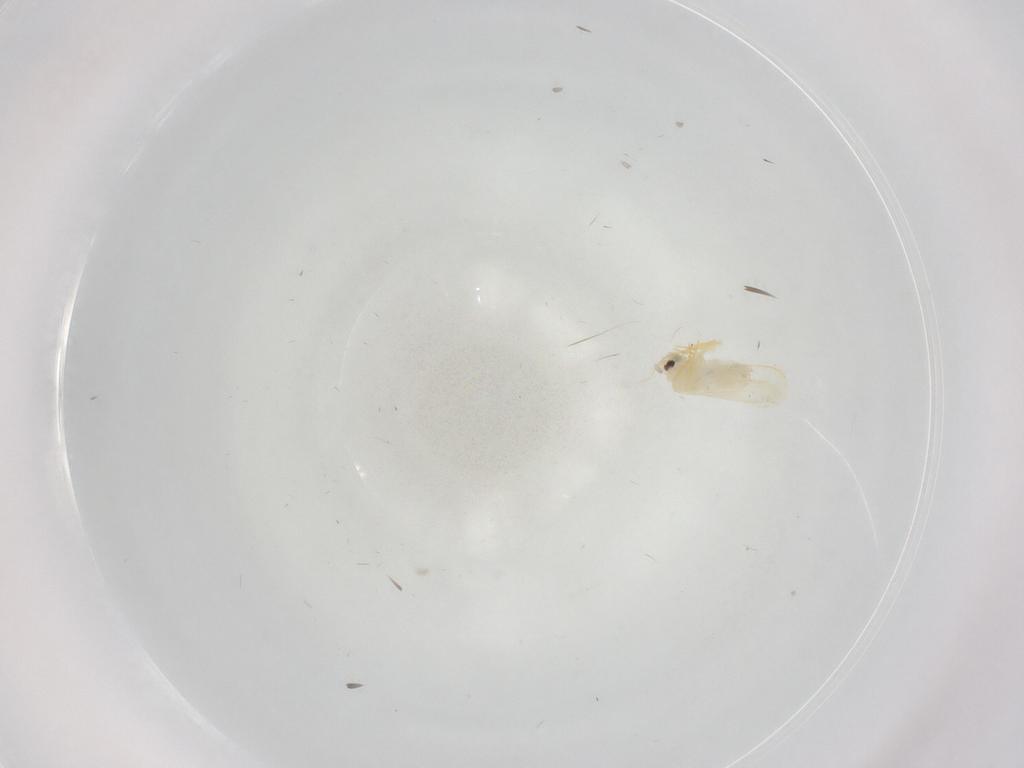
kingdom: Animalia
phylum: Arthropoda
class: Insecta
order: Hemiptera
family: Aleyrodidae
